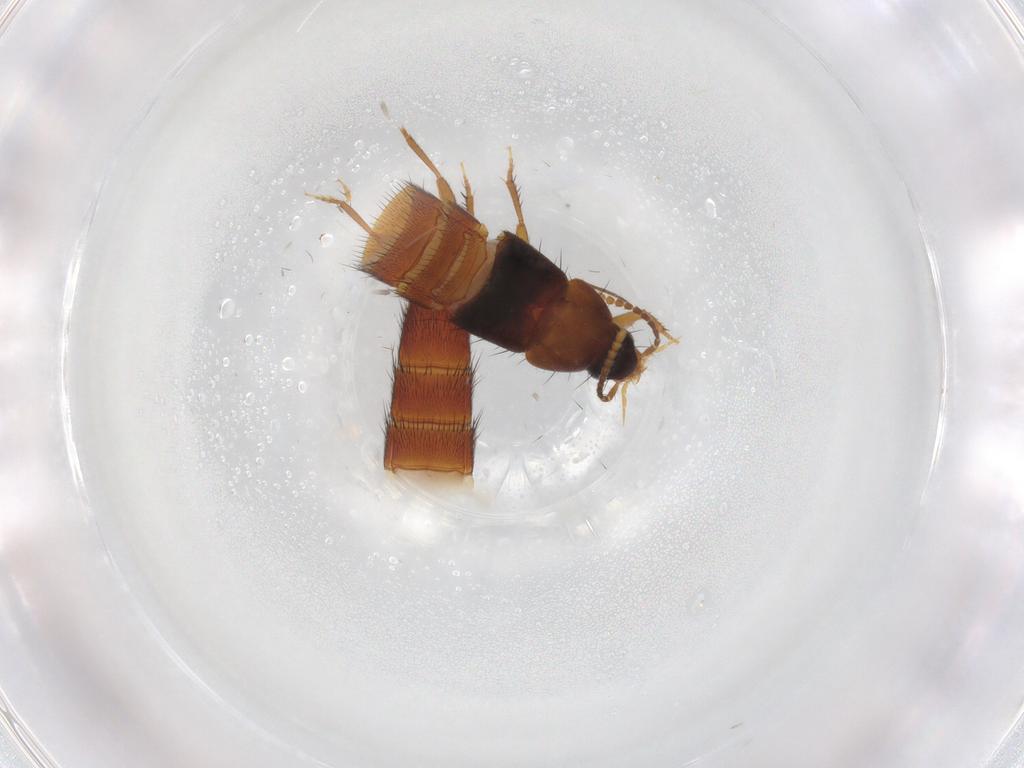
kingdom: Animalia
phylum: Arthropoda
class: Insecta
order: Coleoptera
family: Staphylinidae
